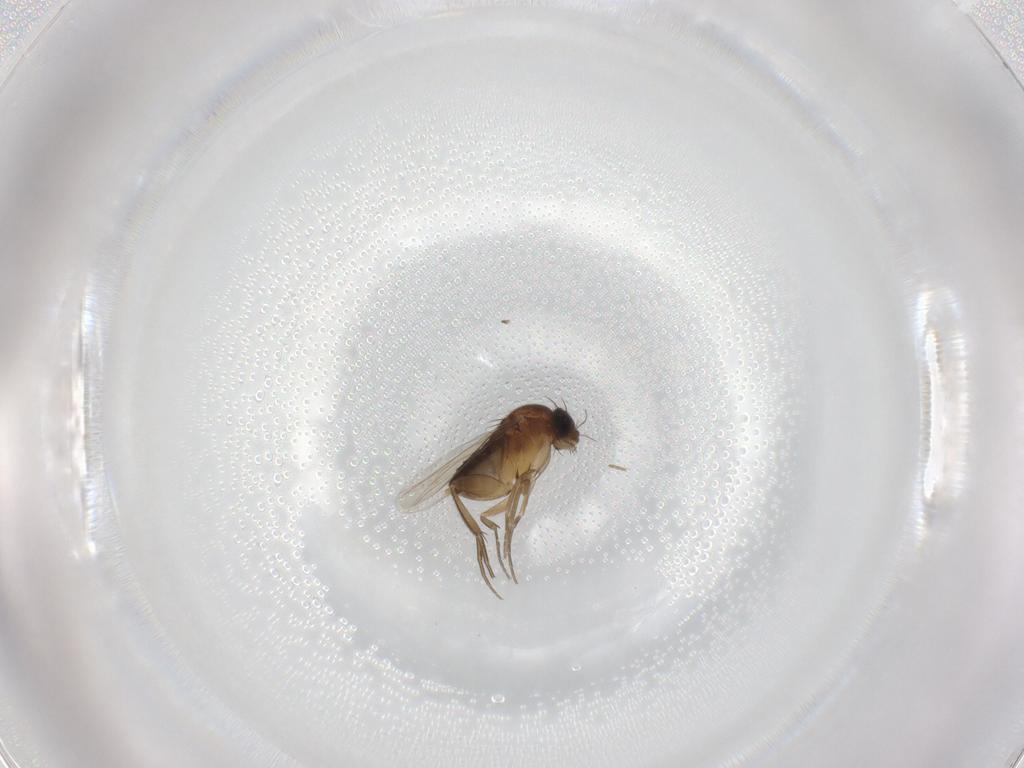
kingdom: Animalia
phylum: Arthropoda
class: Insecta
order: Diptera
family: Phoridae
